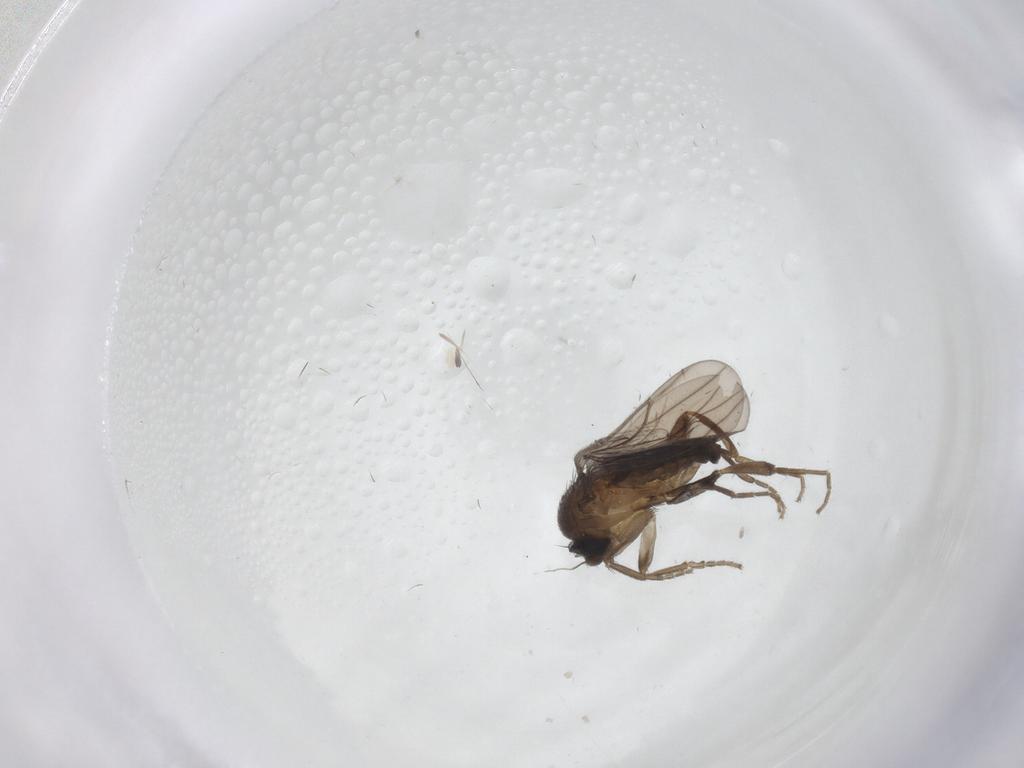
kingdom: Animalia
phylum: Arthropoda
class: Insecta
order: Diptera
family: Muscidae
